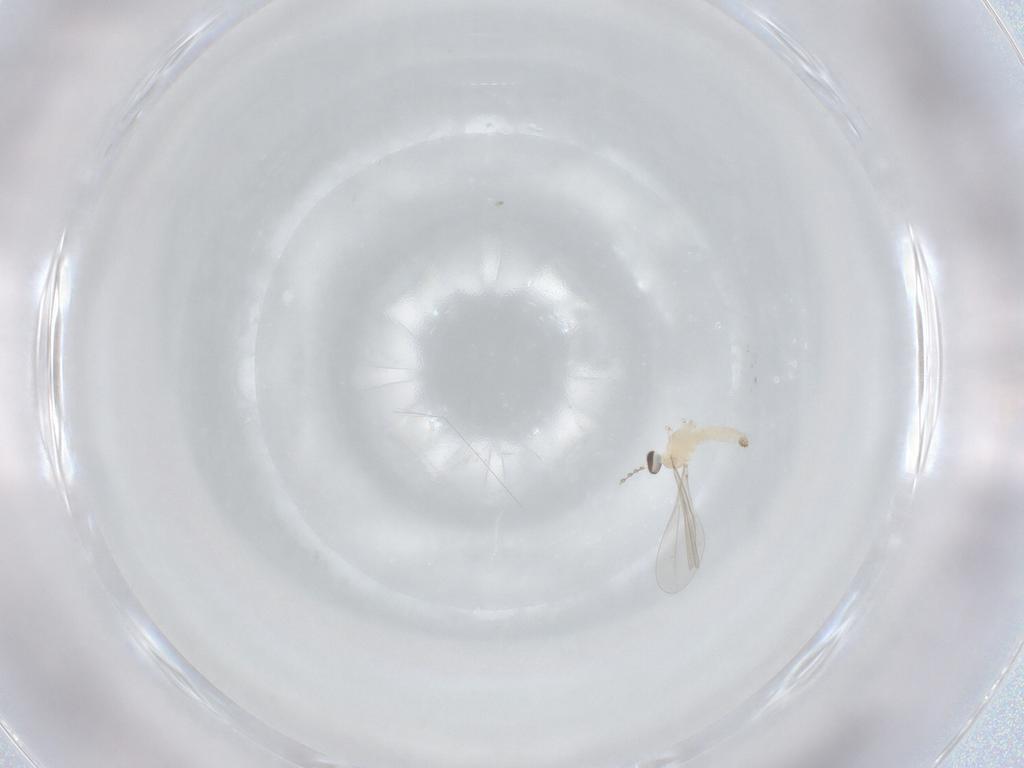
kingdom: Animalia
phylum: Arthropoda
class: Insecta
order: Diptera
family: Cecidomyiidae
